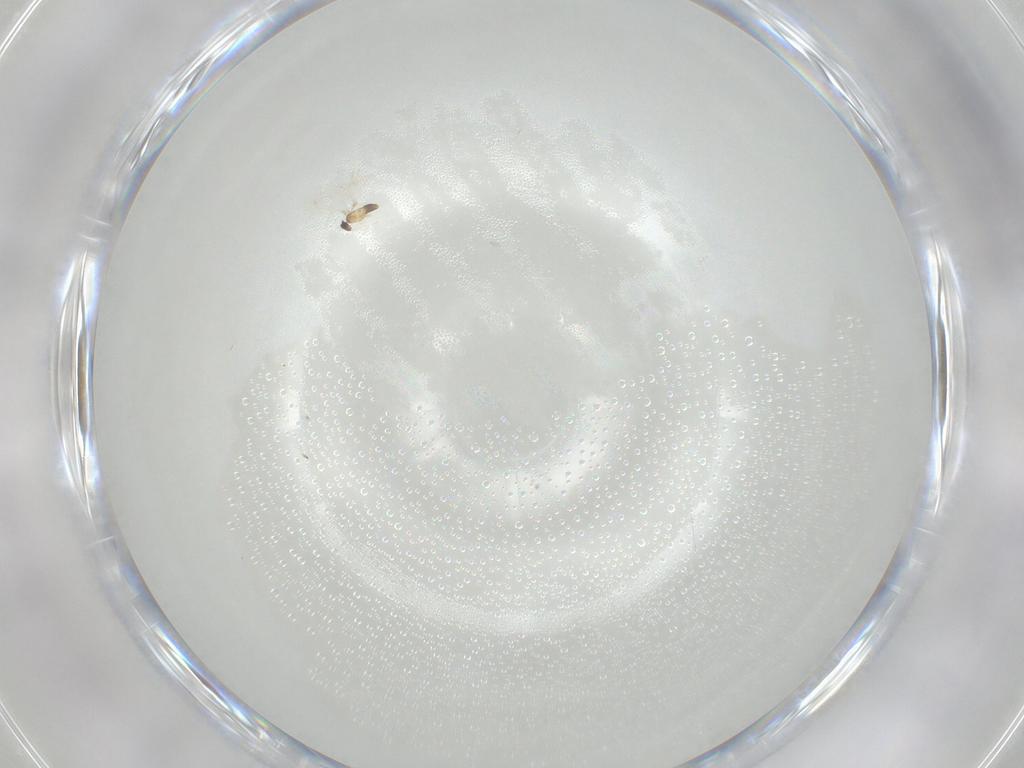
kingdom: Animalia
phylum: Arthropoda
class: Insecta
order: Hymenoptera
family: Mymaridae
